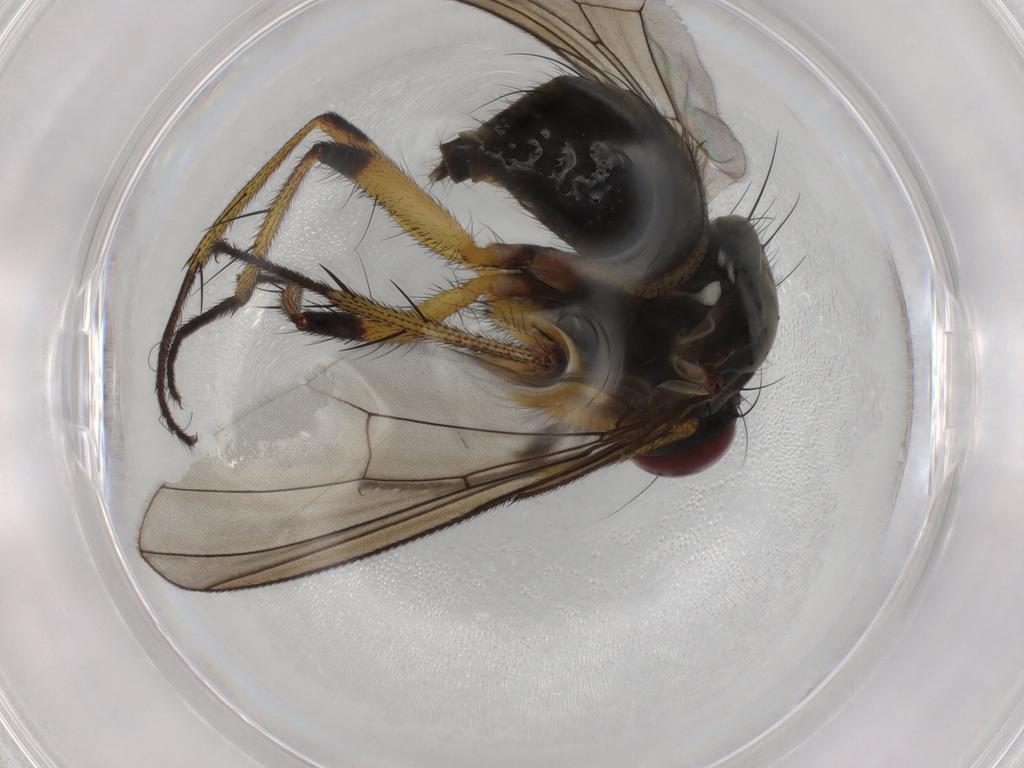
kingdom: Animalia
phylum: Arthropoda
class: Insecta
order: Diptera
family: Muscidae
